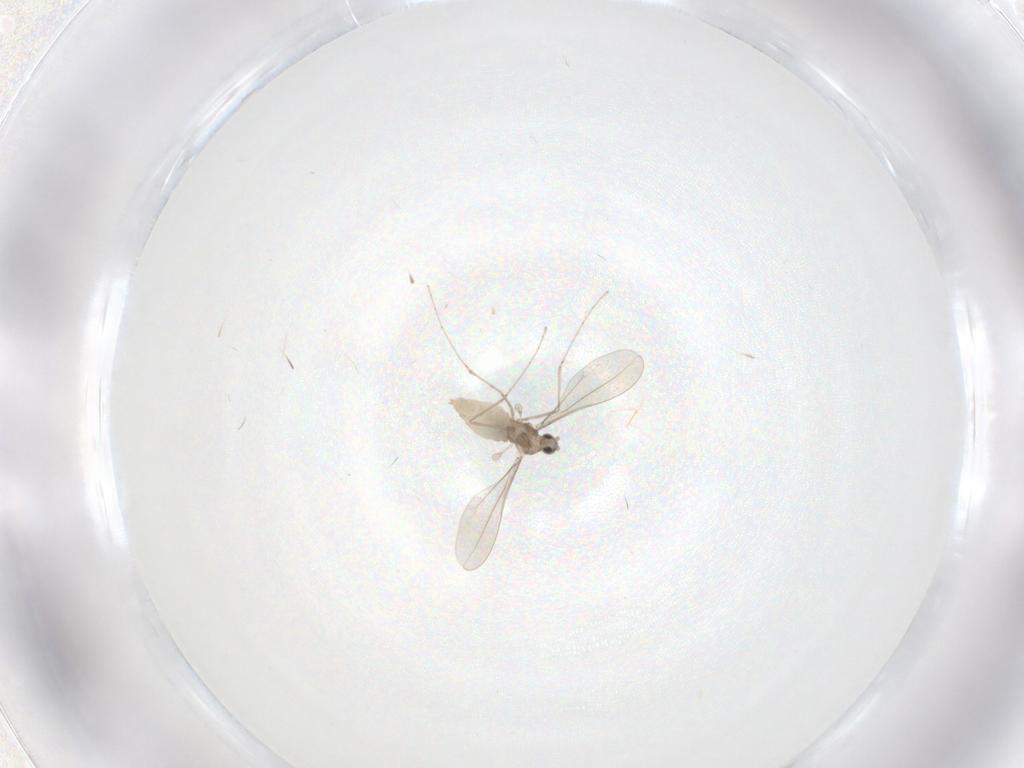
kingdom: Animalia
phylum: Arthropoda
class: Insecta
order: Diptera
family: Cecidomyiidae
